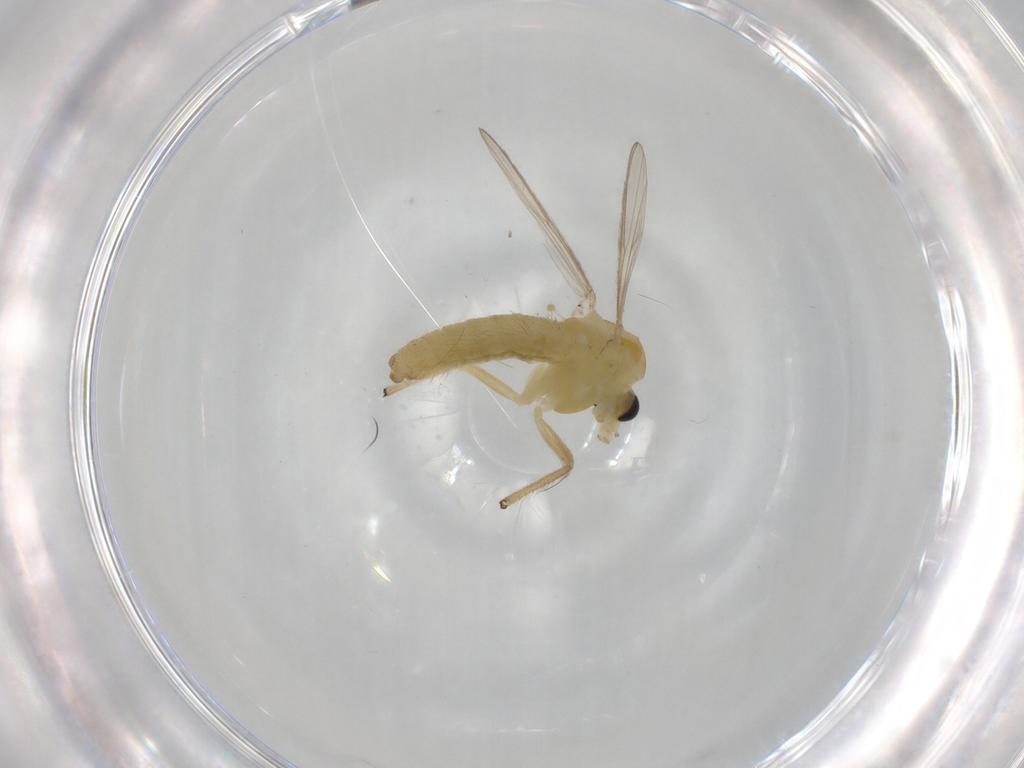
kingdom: Animalia
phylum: Arthropoda
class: Insecta
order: Diptera
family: Chironomidae
